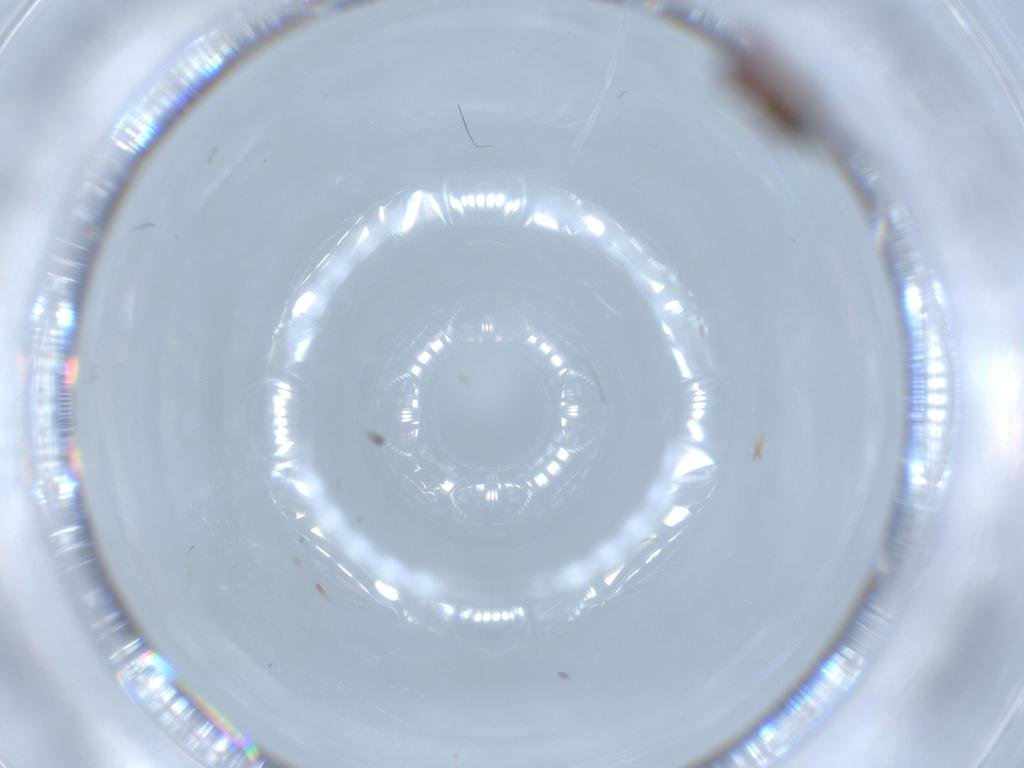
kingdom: Animalia
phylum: Arthropoda
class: Insecta
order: Diptera
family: Drosophilidae
